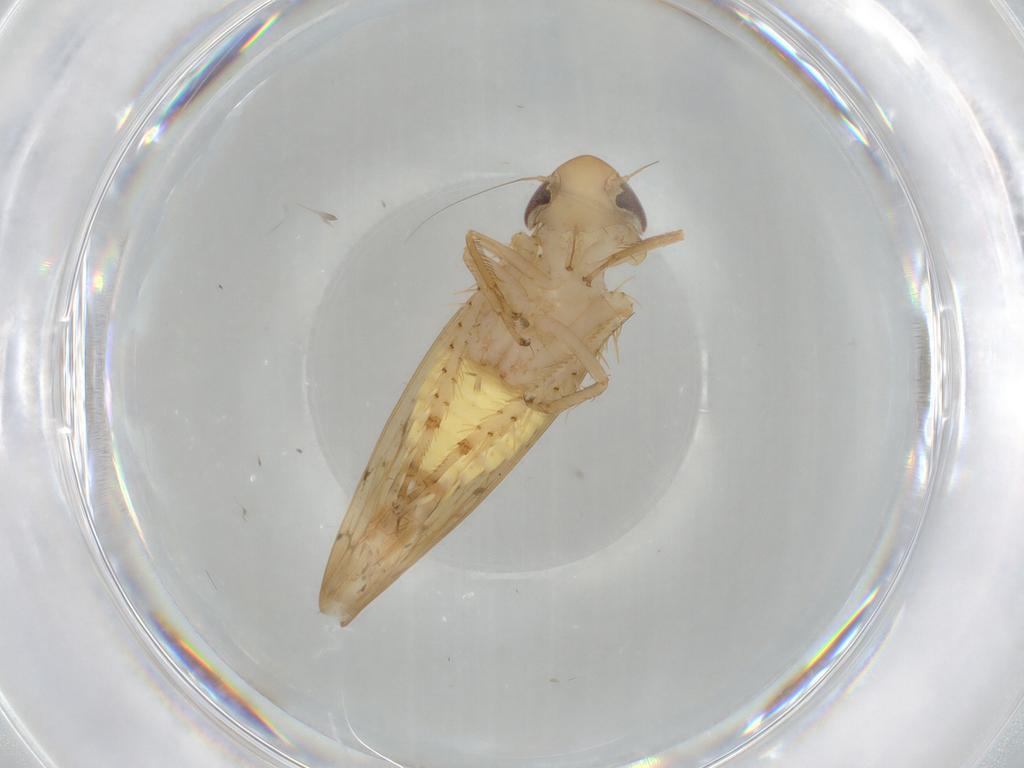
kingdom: Animalia
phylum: Arthropoda
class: Insecta
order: Hemiptera
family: Cicadellidae
